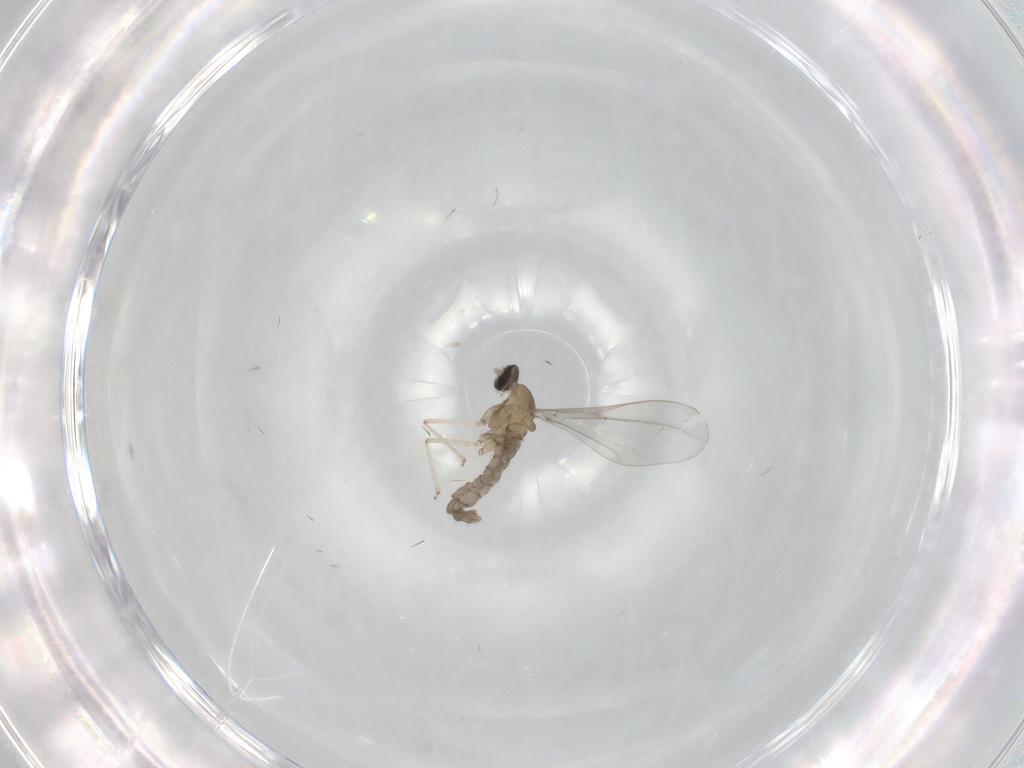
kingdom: Animalia
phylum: Arthropoda
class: Insecta
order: Diptera
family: Cecidomyiidae
